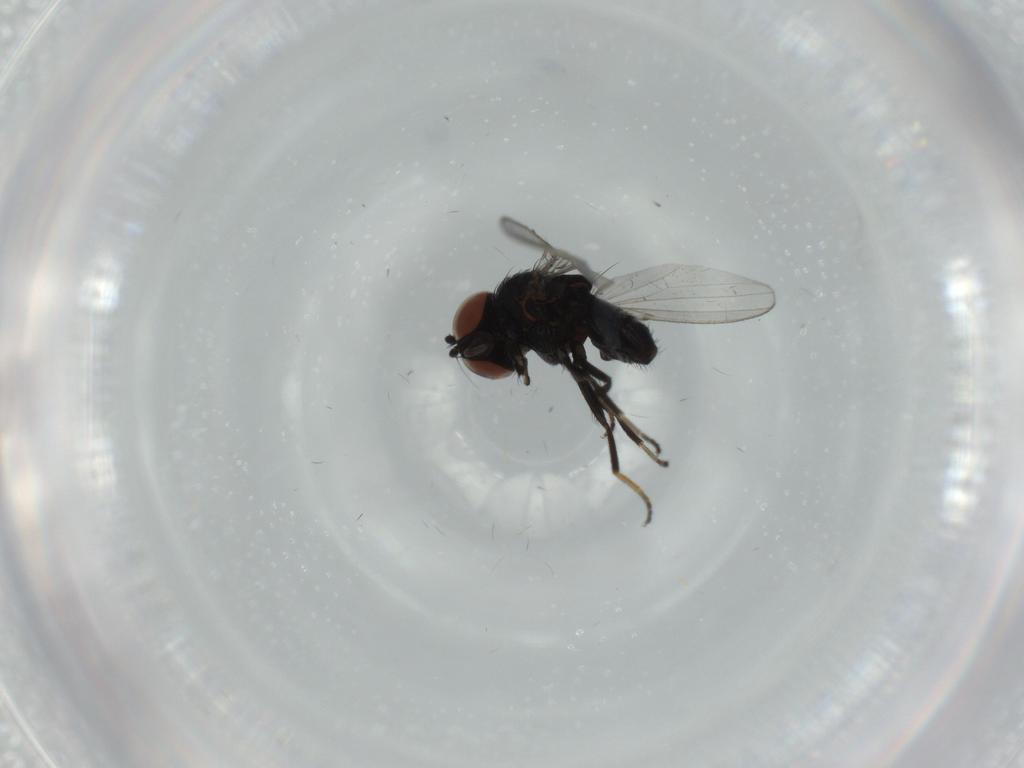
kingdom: Animalia
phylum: Arthropoda
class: Insecta
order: Diptera
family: Milichiidae
